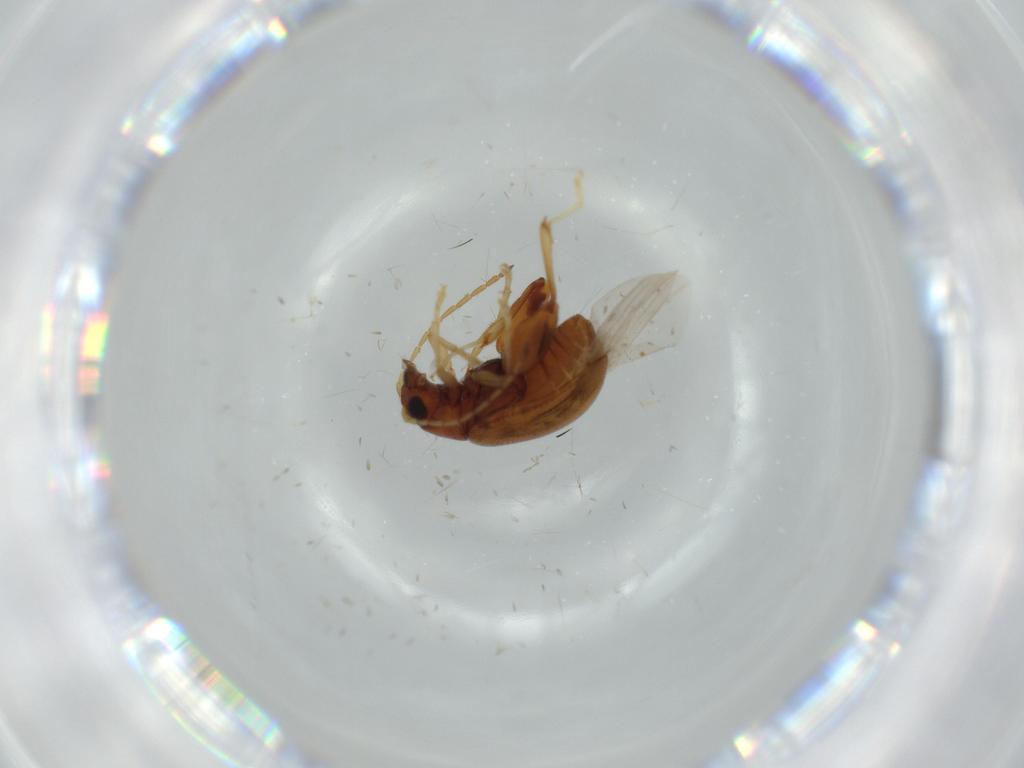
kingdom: Animalia
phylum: Arthropoda
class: Insecta
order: Coleoptera
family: Chrysomelidae
